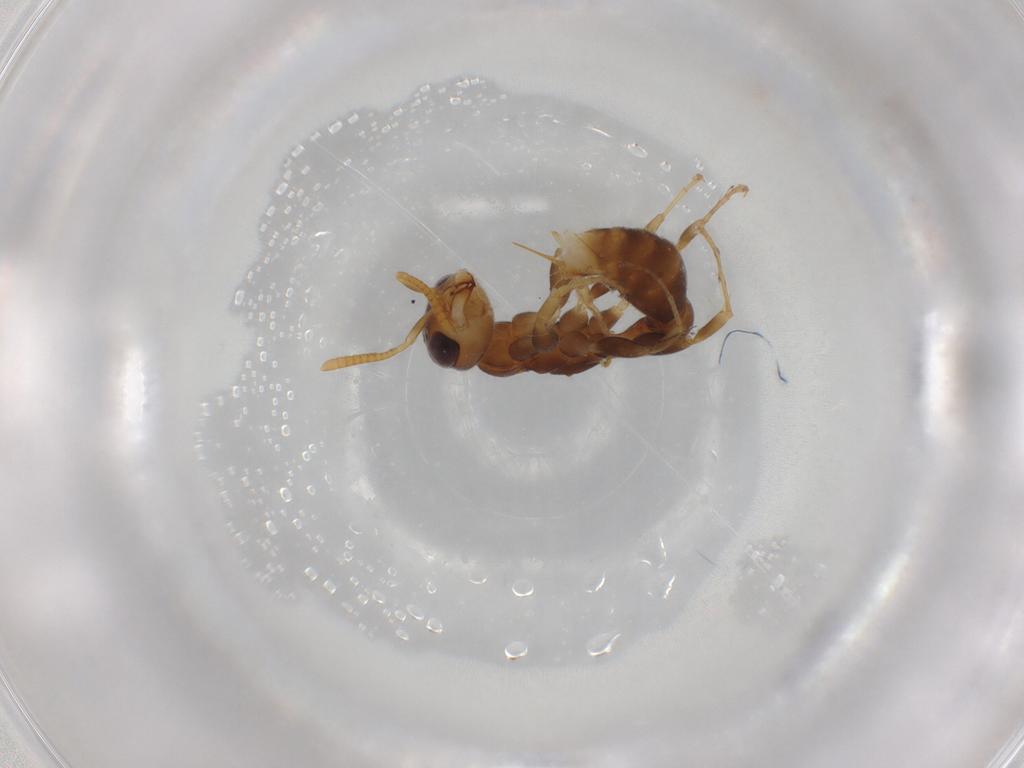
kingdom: Animalia
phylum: Arthropoda
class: Insecta
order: Hymenoptera
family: Formicidae
